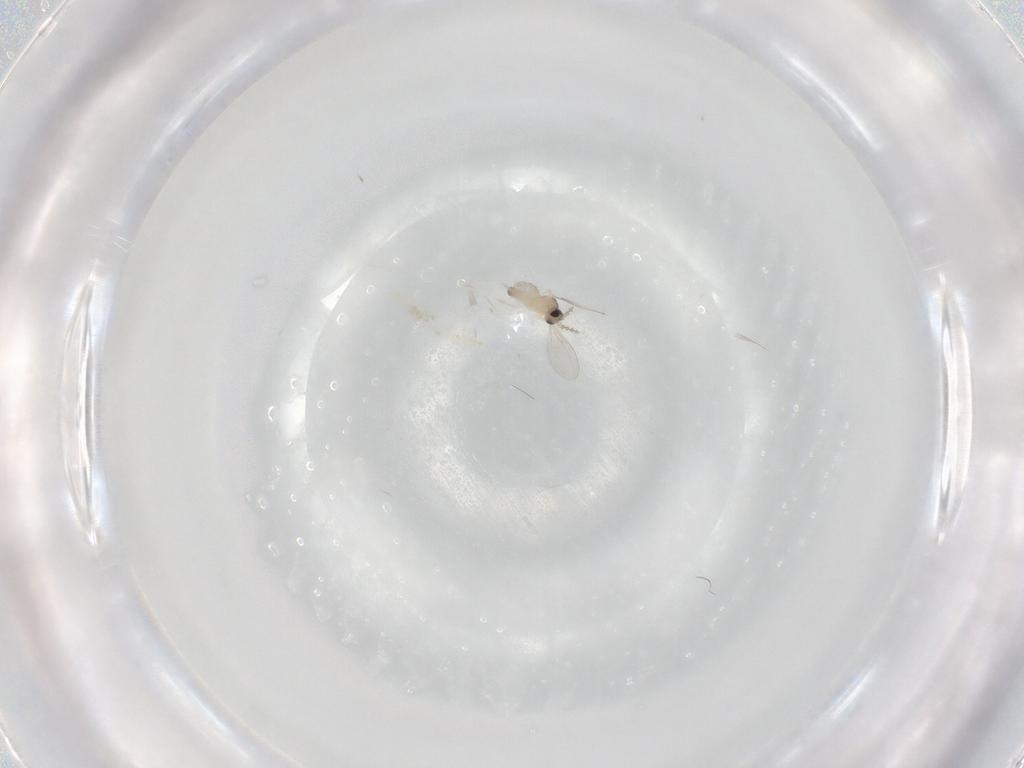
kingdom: Animalia
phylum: Arthropoda
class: Insecta
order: Diptera
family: Cecidomyiidae
